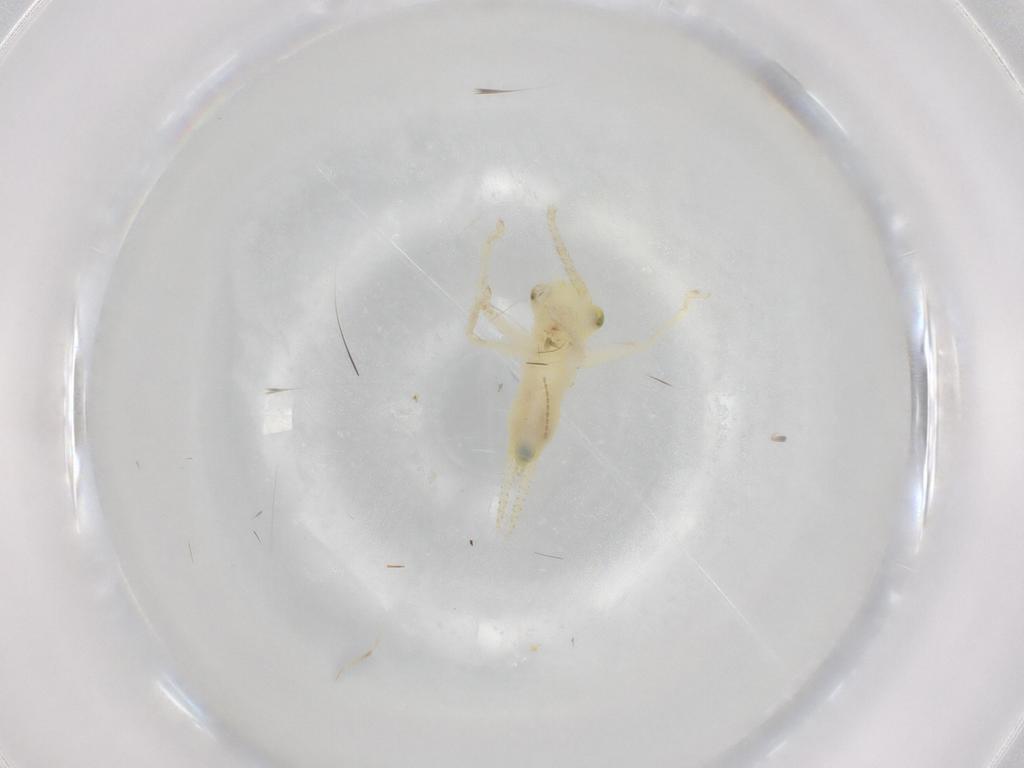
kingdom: Animalia
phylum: Arthropoda
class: Insecta
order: Orthoptera
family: Trigonidiidae
